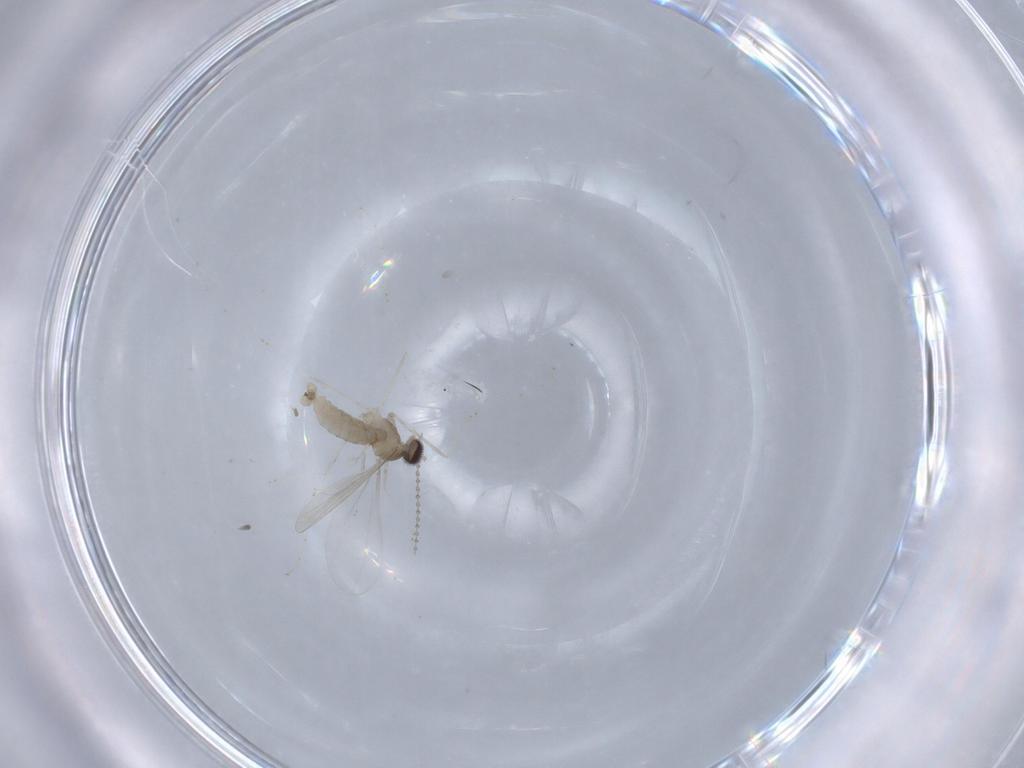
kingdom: Animalia
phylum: Arthropoda
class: Insecta
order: Diptera
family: Cecidomyiidae
